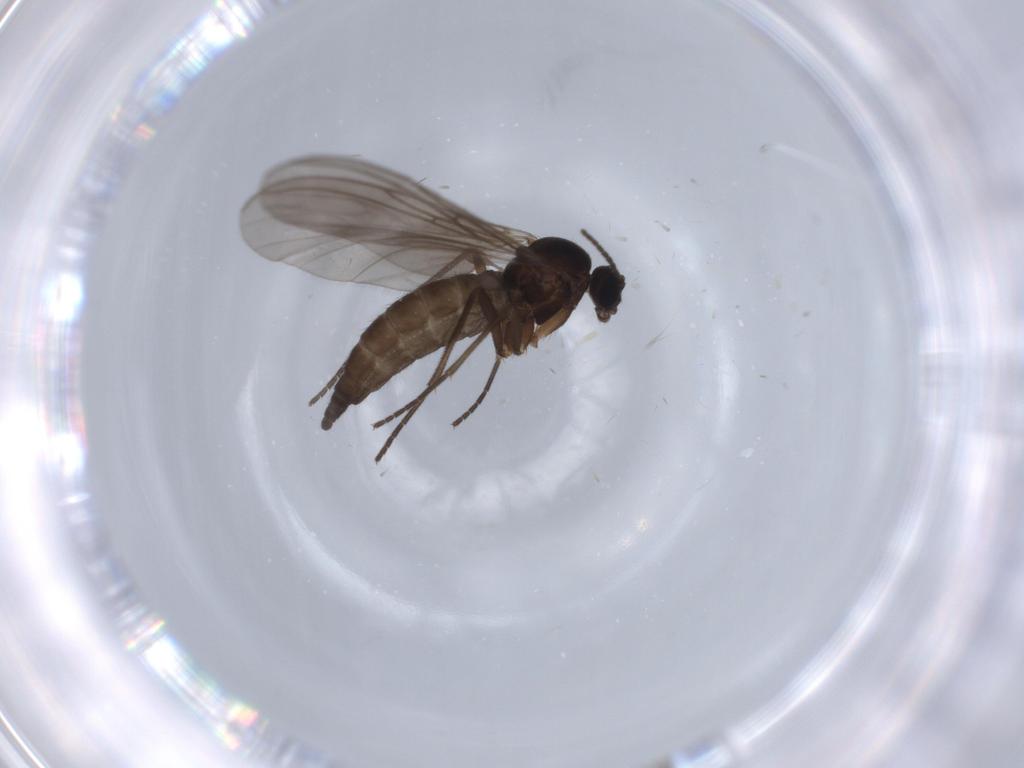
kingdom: Animalia
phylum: Arthropoda
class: Insecta
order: Diptera
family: Sciaridae
